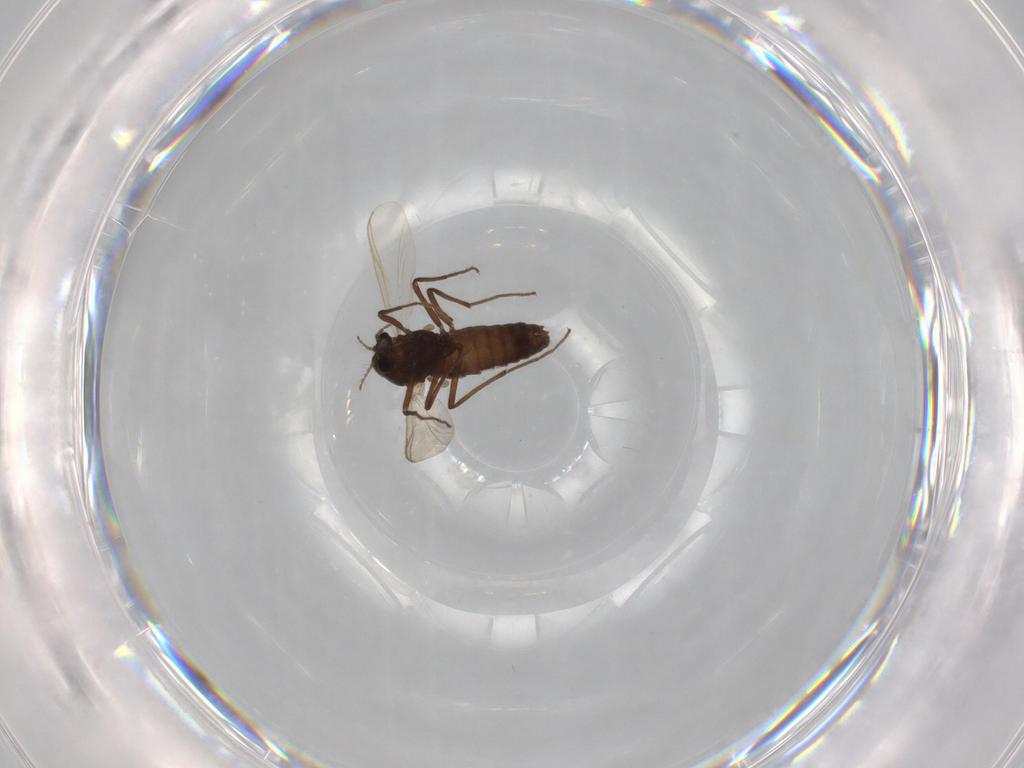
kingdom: Animalia
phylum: Arthropoda
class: Insecta
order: Diptera
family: Chironomidae
